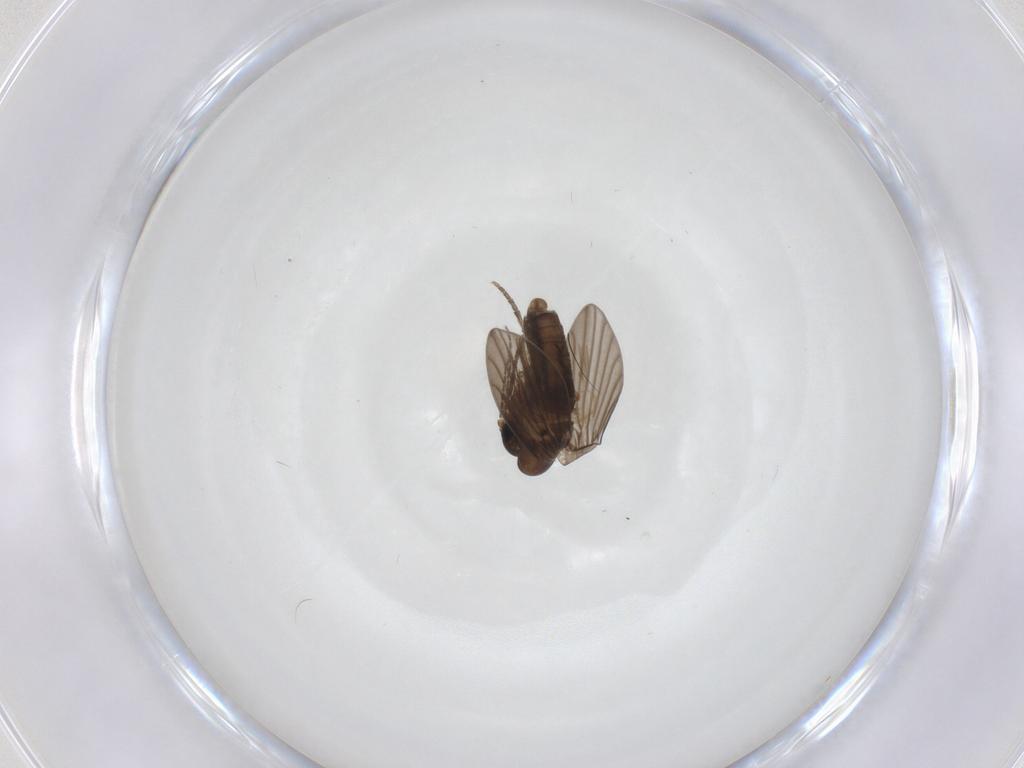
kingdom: Animalia
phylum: Arthropoda
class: Insecta
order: Diptera
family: Psychodidae
